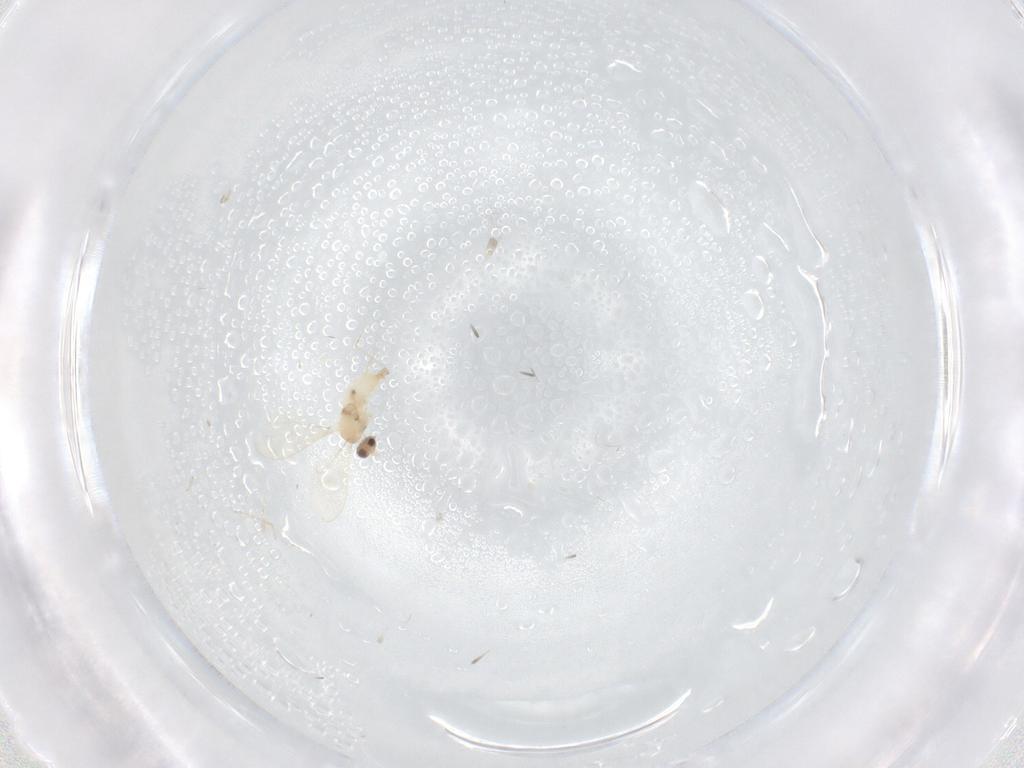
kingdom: Animalia
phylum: Arthropoda
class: Insecta
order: Diptera
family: Cecidomyiidae
